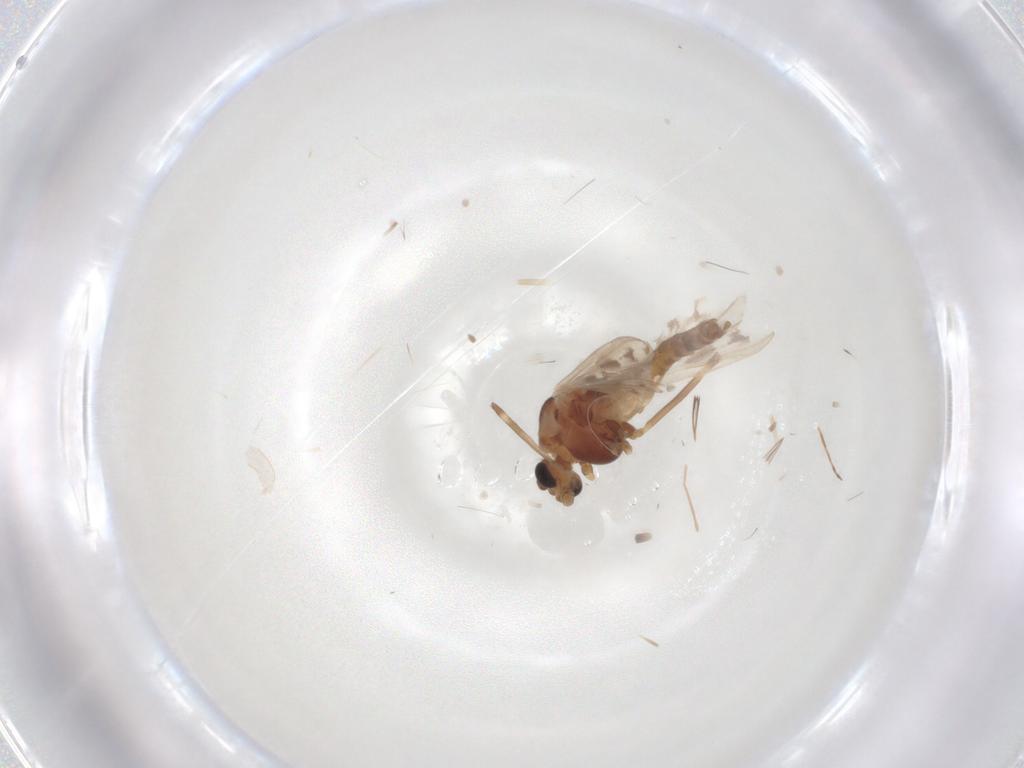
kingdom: Animalia
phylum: Arthropoda
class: Insecta
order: Diptera
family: Chironomidae
